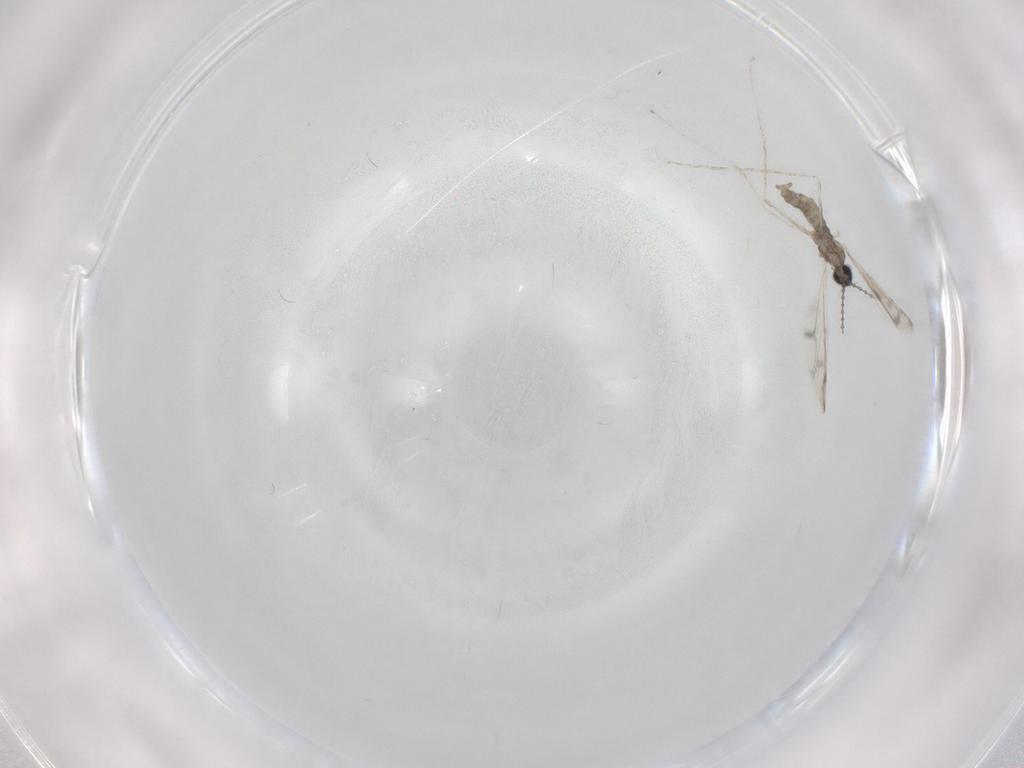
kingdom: Animalia
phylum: Arthropoda
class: Insecta
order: Diptera
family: Cecidomyiidae
